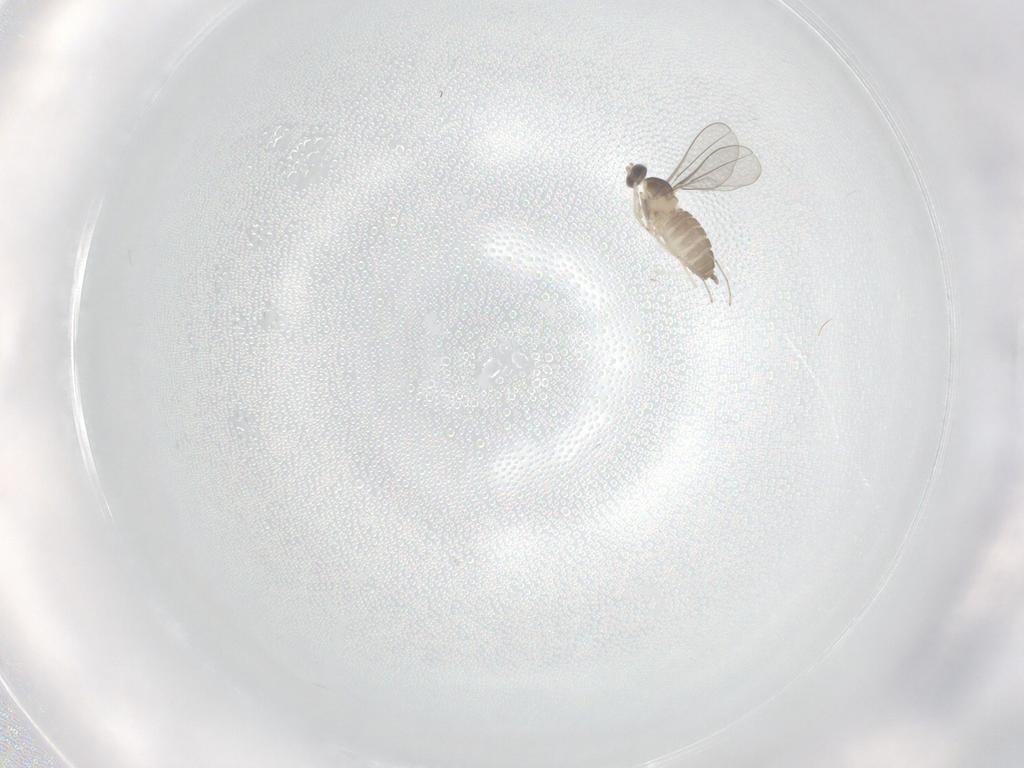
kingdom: Animalia
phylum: Arthropoda
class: Insecta
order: Diptera
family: Cecidomyiidae
